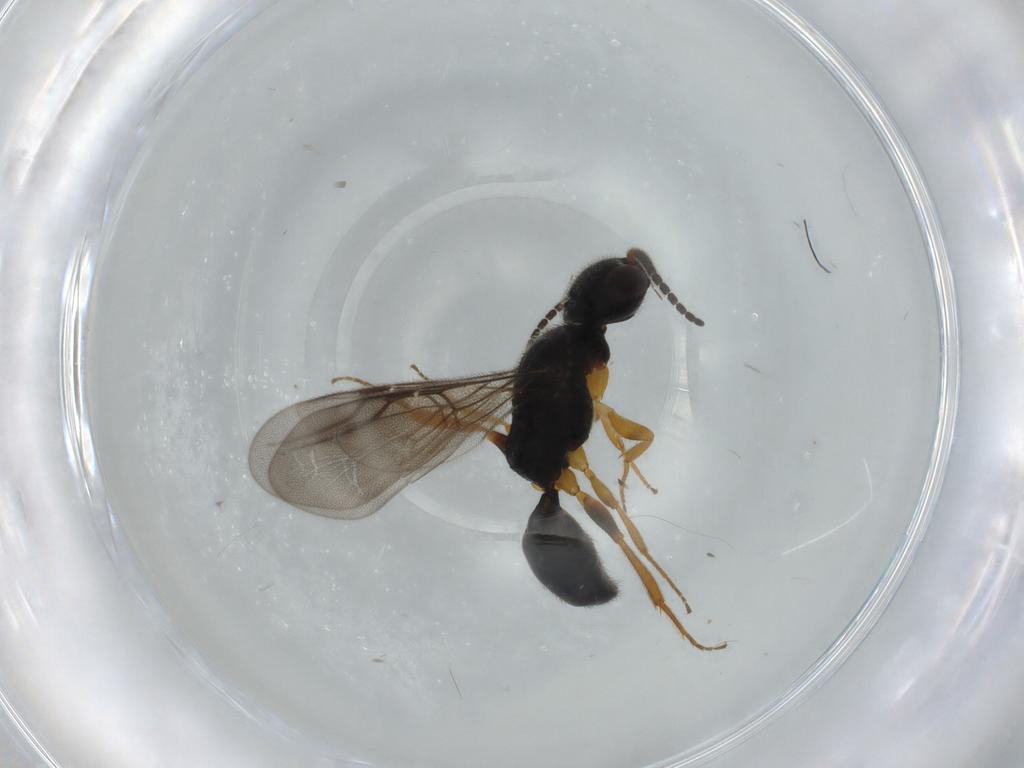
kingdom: Animalia
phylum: Arthropoda
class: Insecta
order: Hymenoptera
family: Bethylidae
